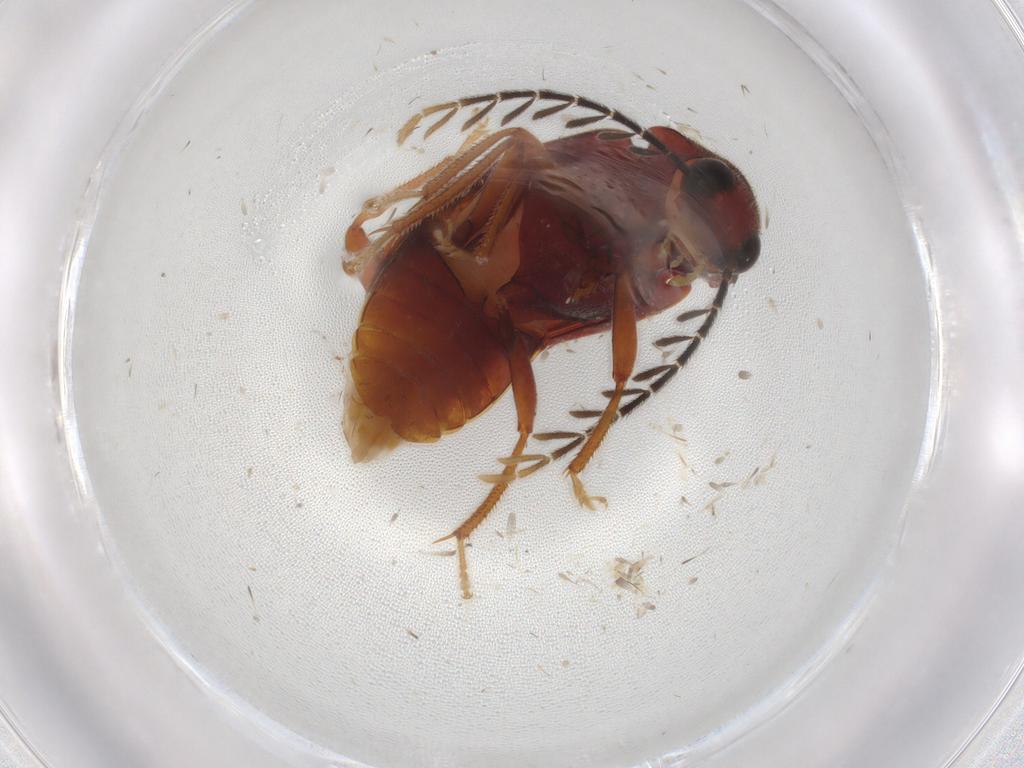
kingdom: Animalia
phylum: Arthropoda
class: Insecta
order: Coleoptera
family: Ptilodactylidae
